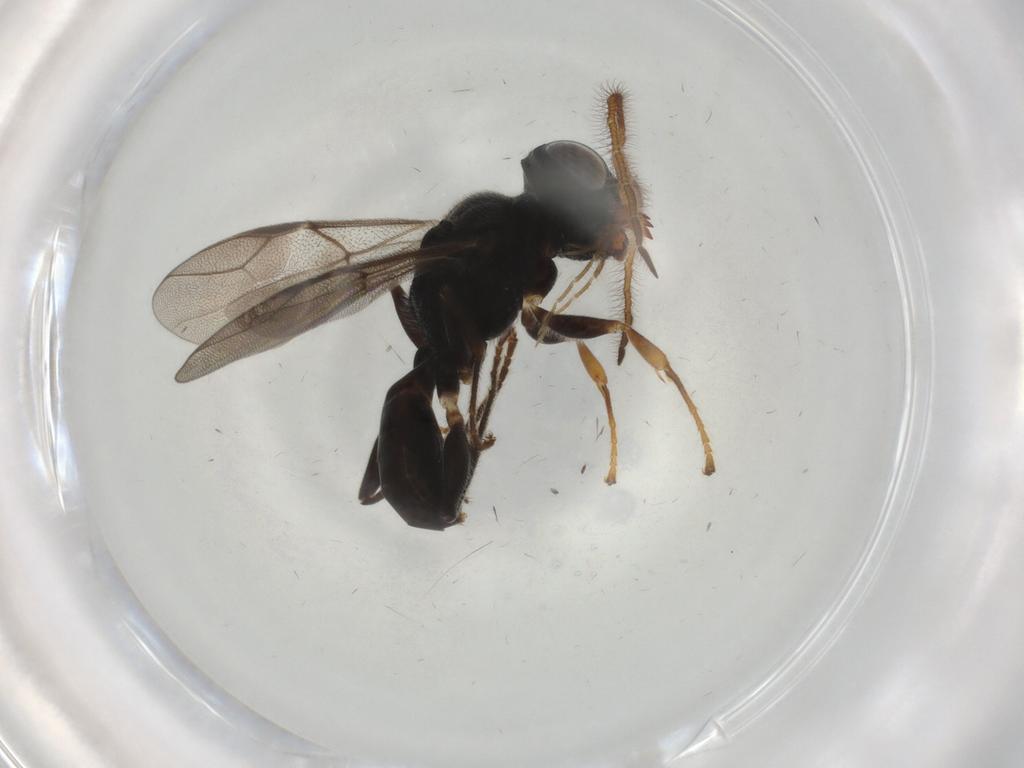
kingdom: Animalia
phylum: Arthropoda
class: Insecta
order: Hymenoptera
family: Dryinidae
